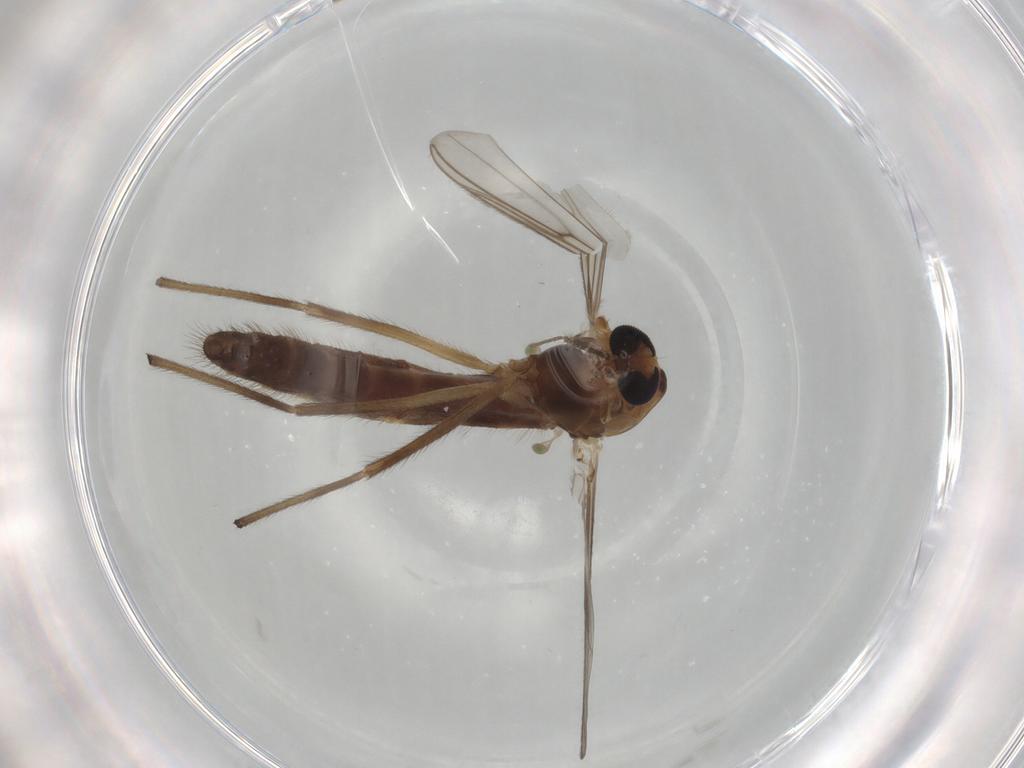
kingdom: Animalia
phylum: Arthropoda
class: Insecta
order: Diptera
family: Chironomidae
